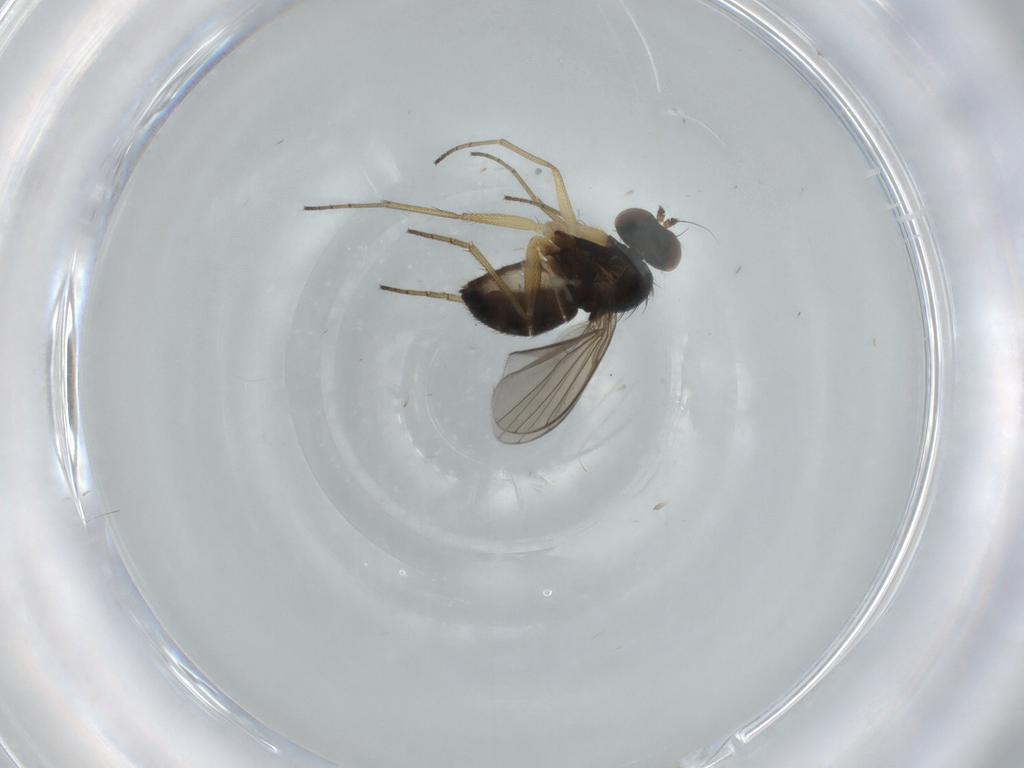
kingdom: Animalia
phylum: Arthropoda
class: Insecta
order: Diptera
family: Dolichopodidae
